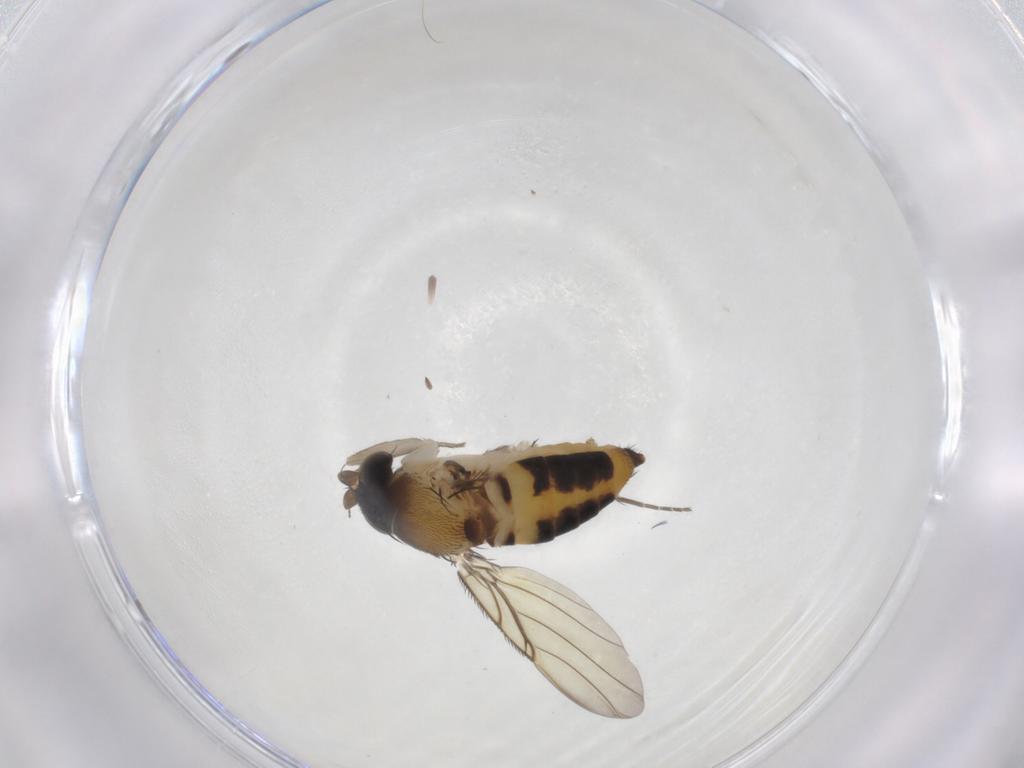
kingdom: Animalia
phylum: Arthropoda
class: Insecta
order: Diptera
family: Phoridae
